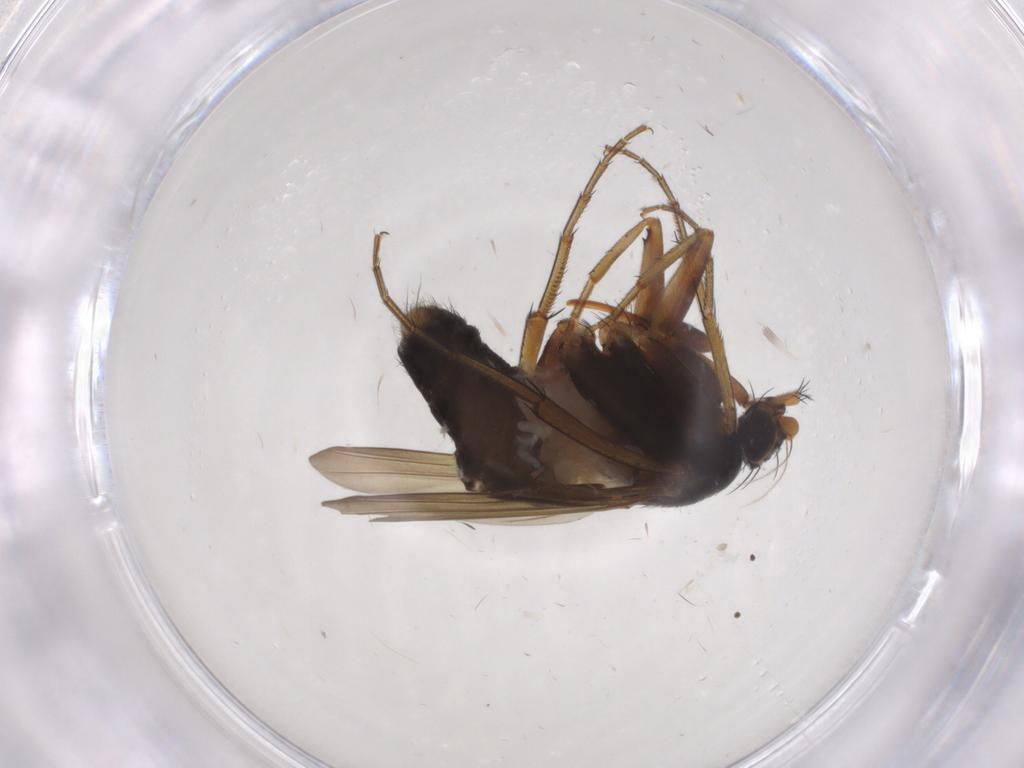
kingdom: Animalia
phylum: Arthropoda
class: Insecta
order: Diptera
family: Phoridae
